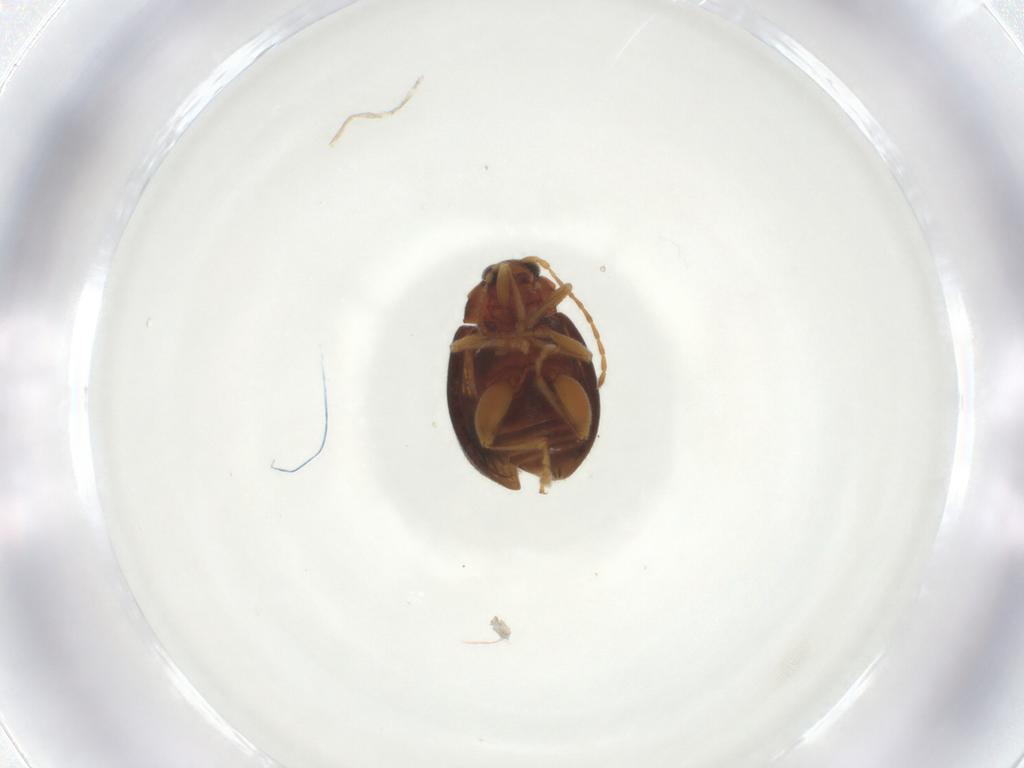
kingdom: Animalia
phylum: Arthropoda
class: Insecta
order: Coleoptera
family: Chrysomelidae
